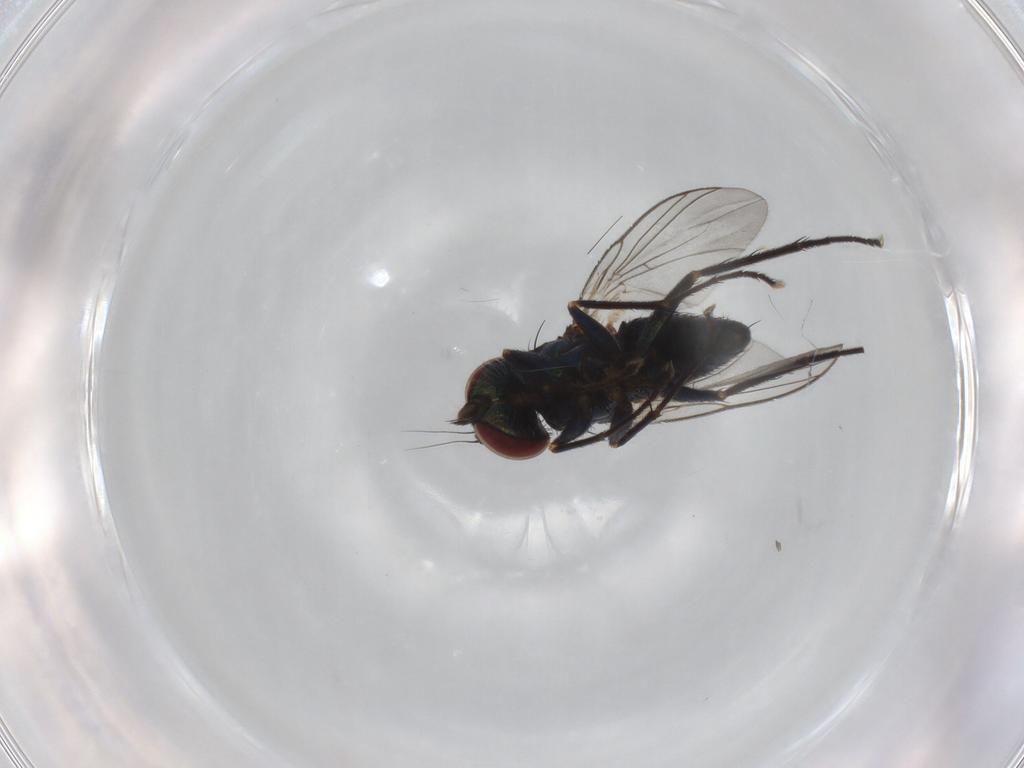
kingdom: Animalia
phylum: Arthropoda
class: Insecta
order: Diptera
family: Dolichopodidae
